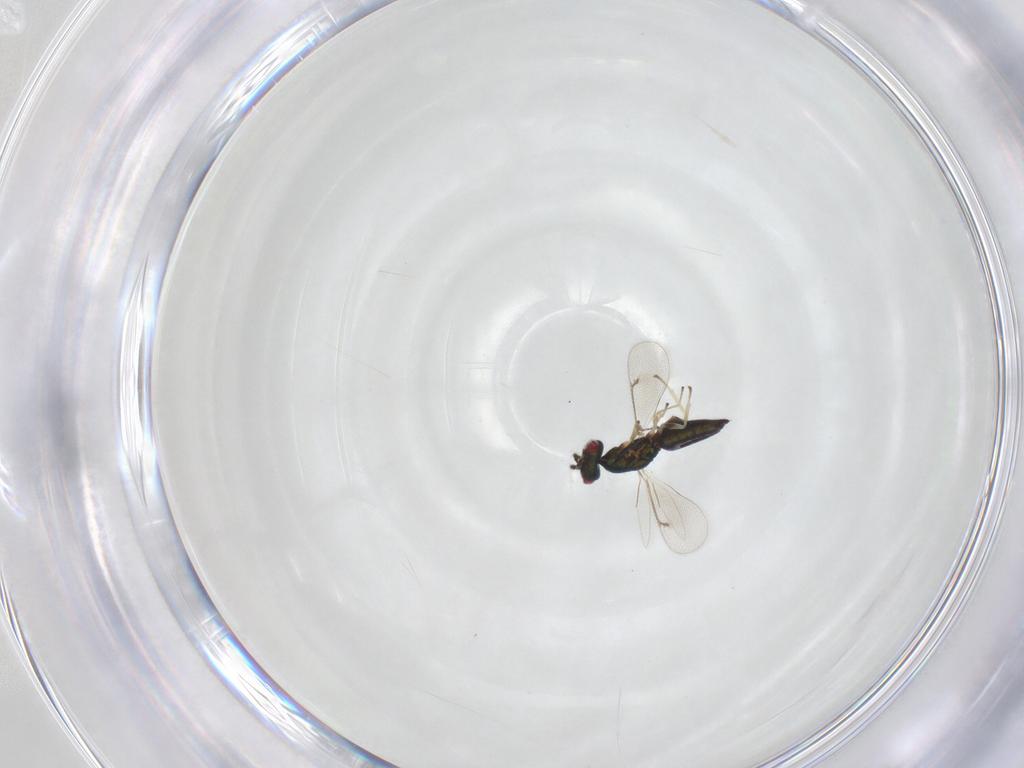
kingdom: Animalia
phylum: Arthropoda
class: Insecta
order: Hymenoptera
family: Eulophidae
